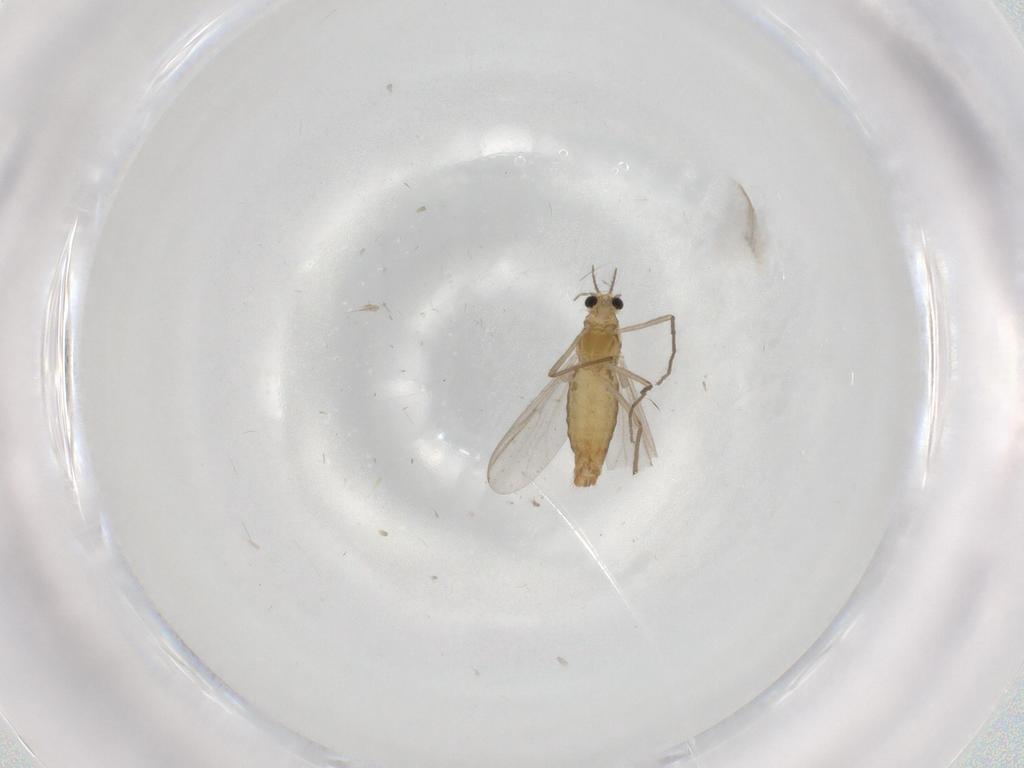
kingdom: Animalia
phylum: Arthropoda
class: Insecta
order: Diptera
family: Chironomidae
